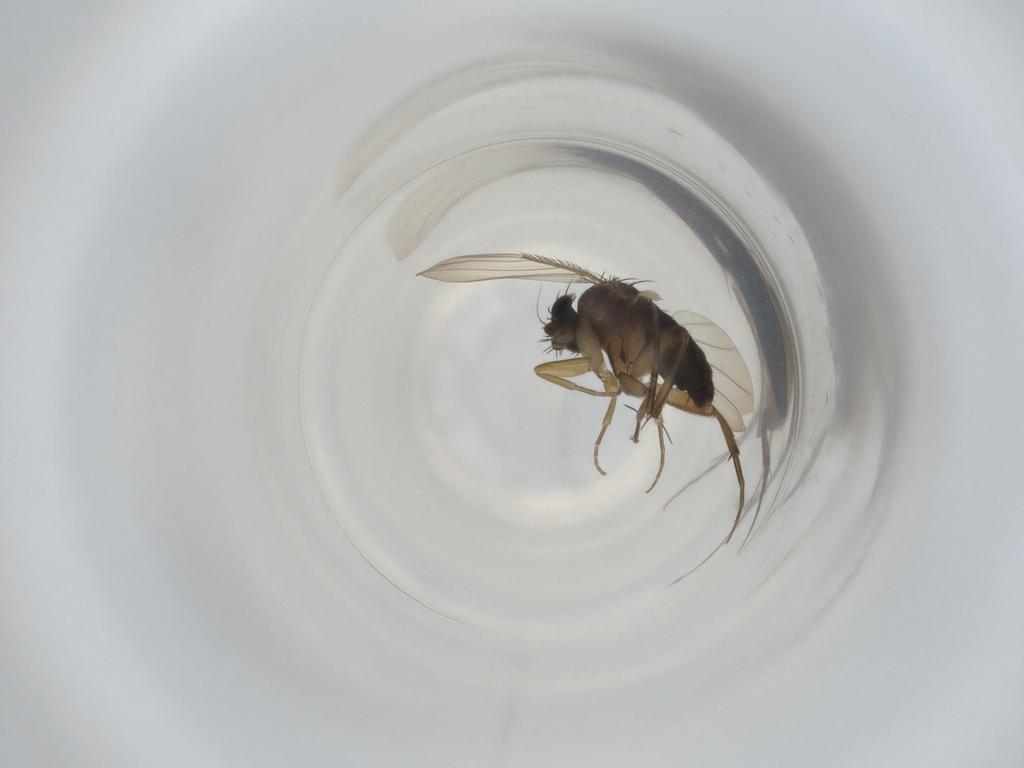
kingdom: Animalia
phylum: Arthropoda
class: Insecta
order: Diptera
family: Phoridae
